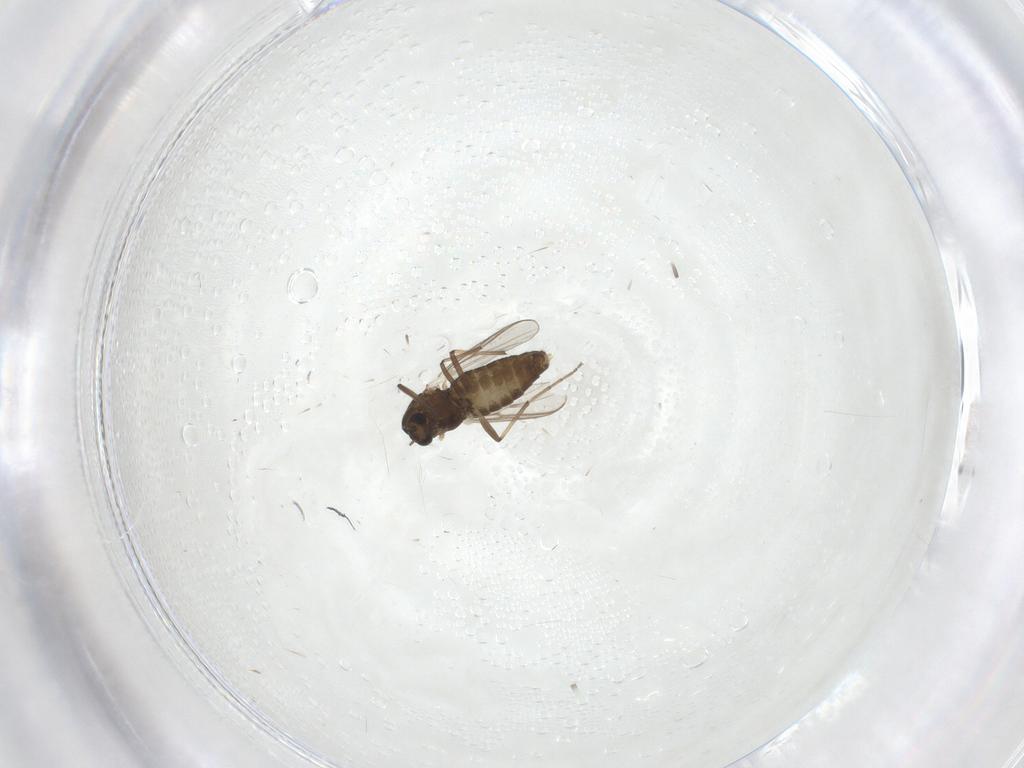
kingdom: Animalia
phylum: Arthropoda
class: Insecta
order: Diptera
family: Chironomidae
